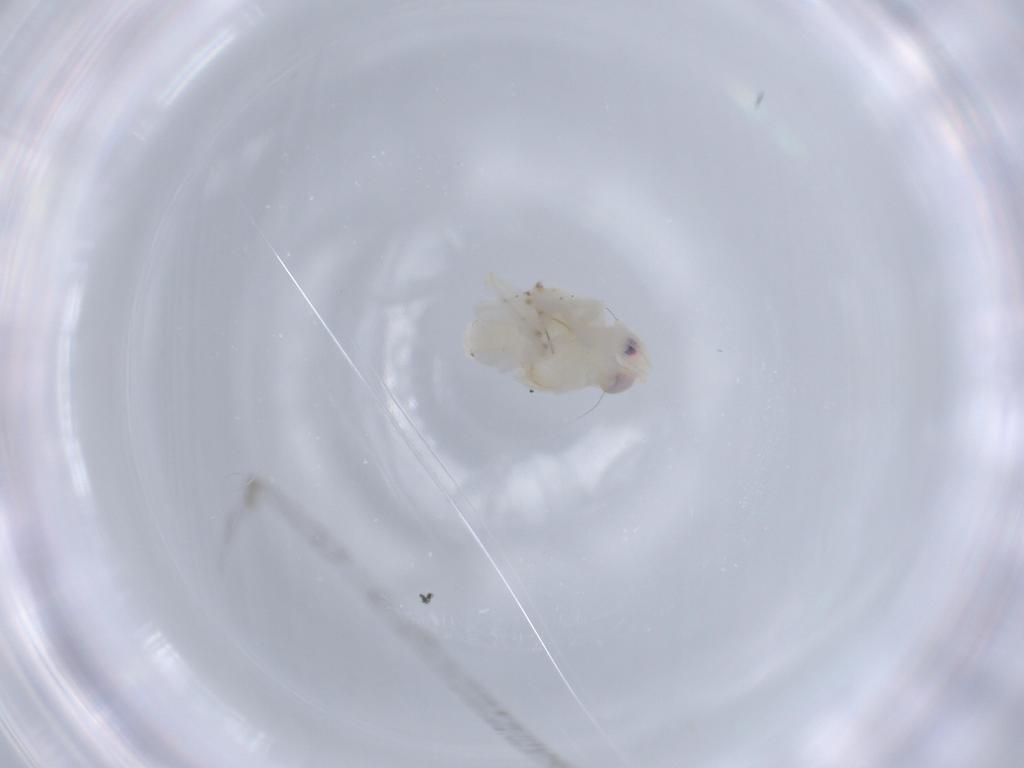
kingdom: Animalia
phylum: Arthropoda
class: Insecta
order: Hemiptera
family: Nogodinidae
